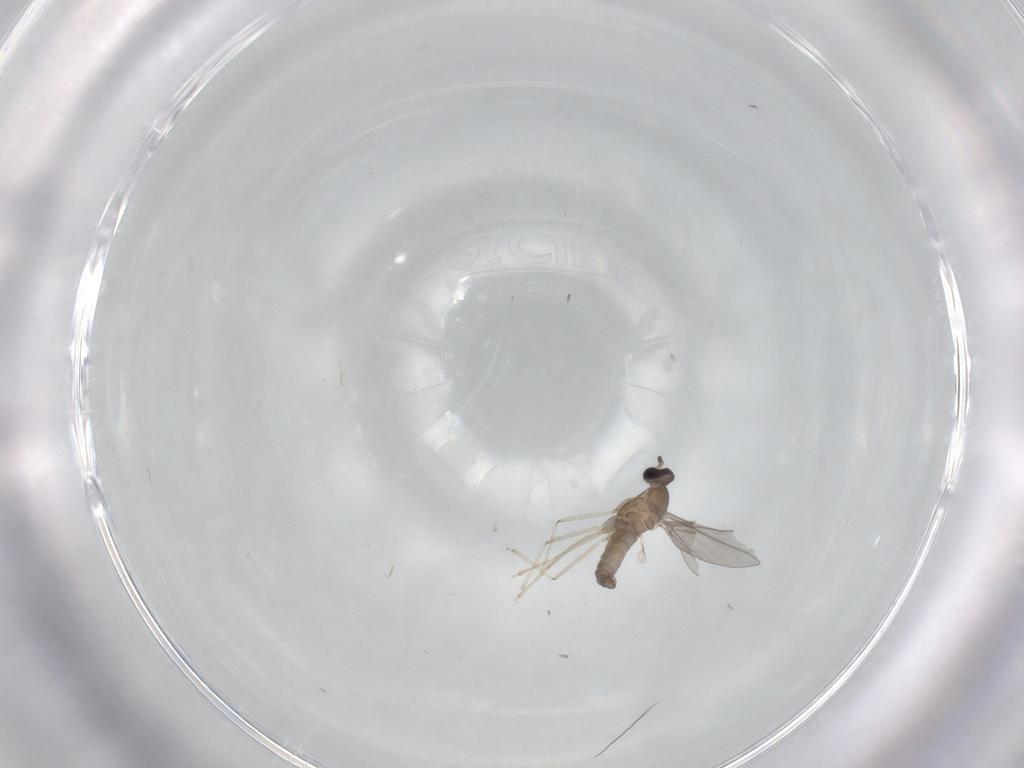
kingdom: Animalia
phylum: Arthropoda
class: Insecta
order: Diptera
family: Cecidomyiidae
